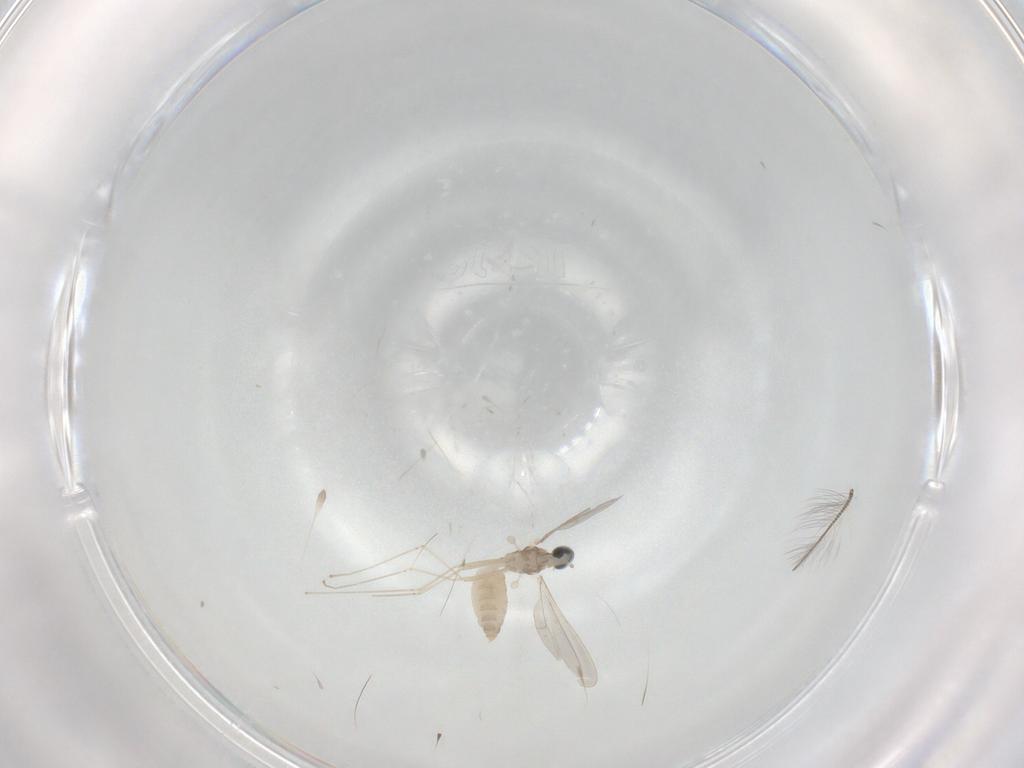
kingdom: Animalia
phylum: Arthropoda
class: Insecta
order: Diptera
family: Cecidomyiidae
